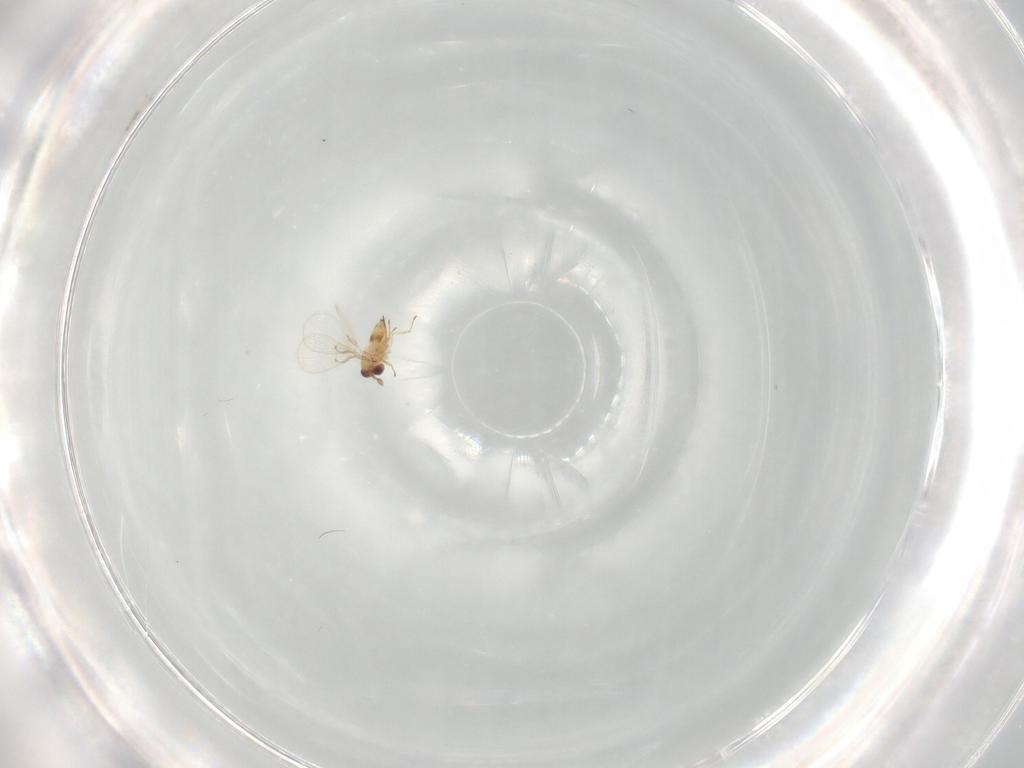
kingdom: Animalia
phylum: Arthropoda
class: Insecta
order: Hymenoptera
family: Trichogrammatidae
